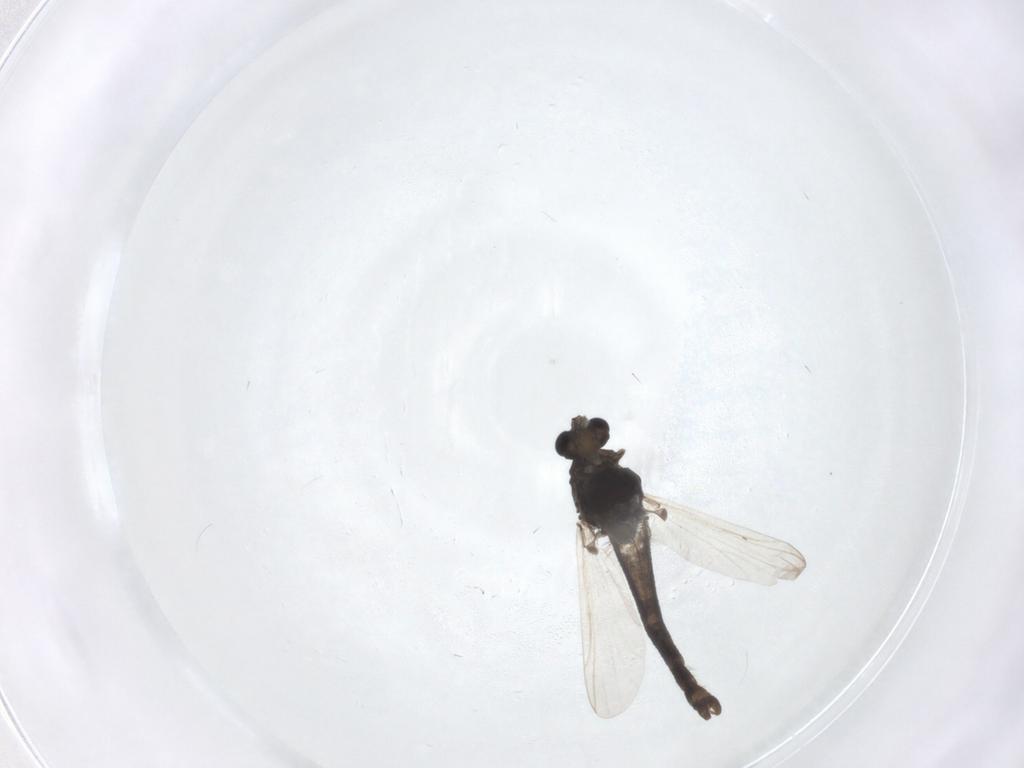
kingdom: Animalia
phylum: Arthropoda
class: Insecta
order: Diptera
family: Chironomidae
